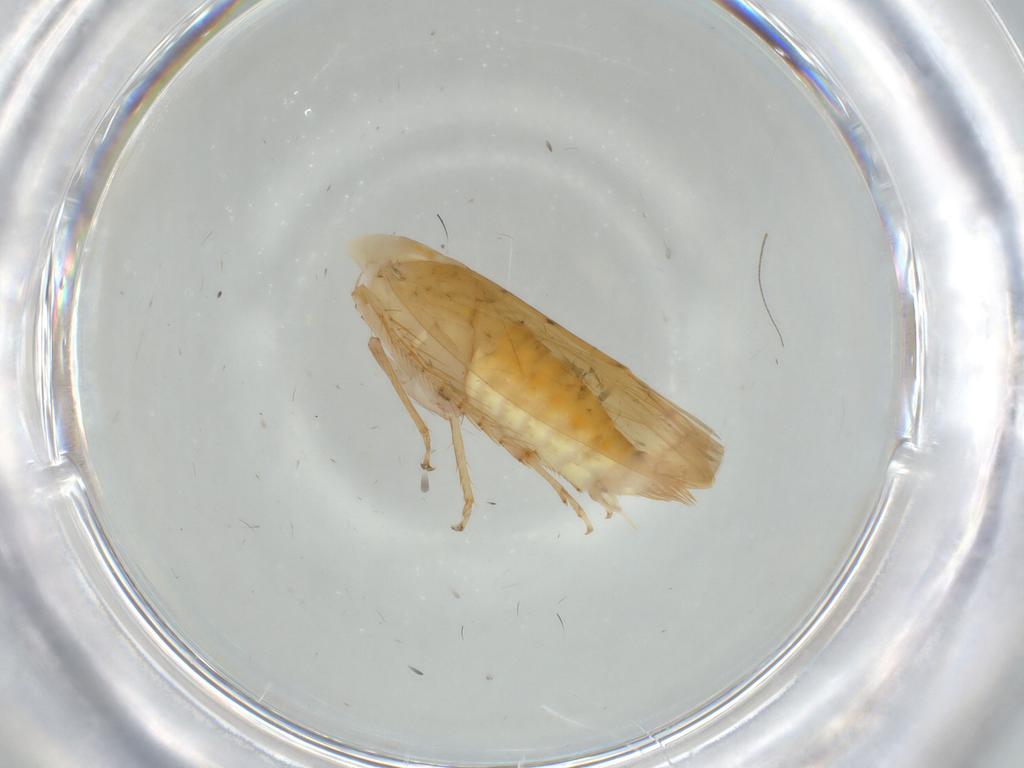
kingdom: Animalia
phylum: Arthropoda
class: Insecta
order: Hemiptera
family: Cicadellidae
